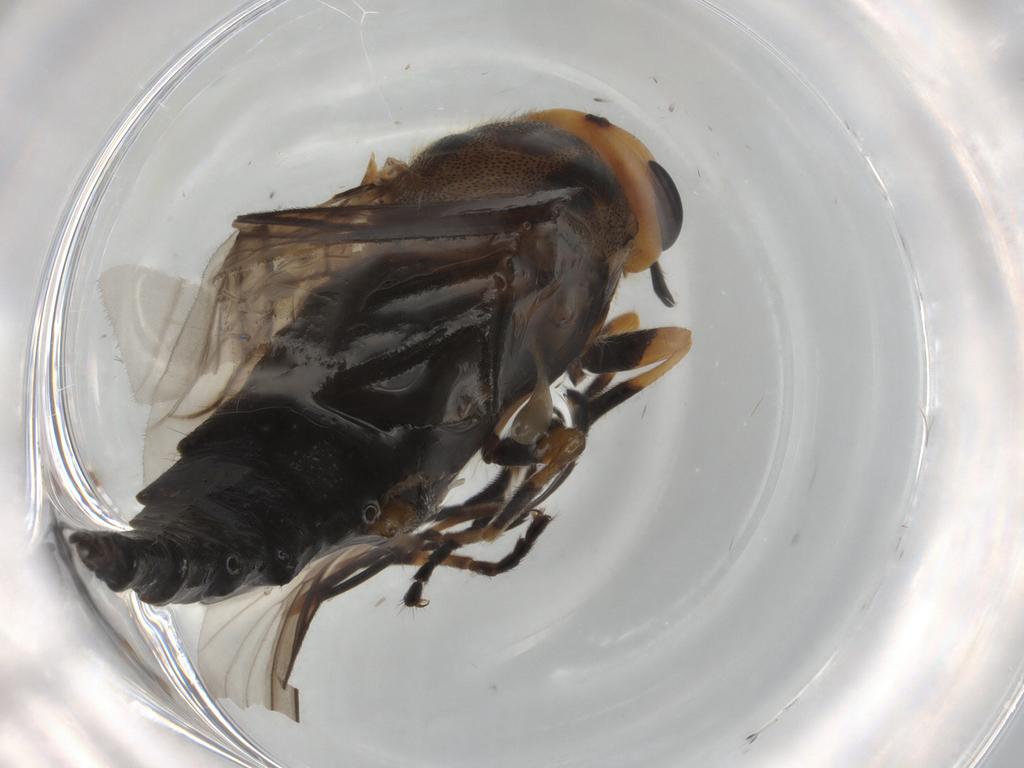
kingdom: Animalia
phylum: Arthropoda
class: Insecta
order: Diptera
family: Stratiomyidae
